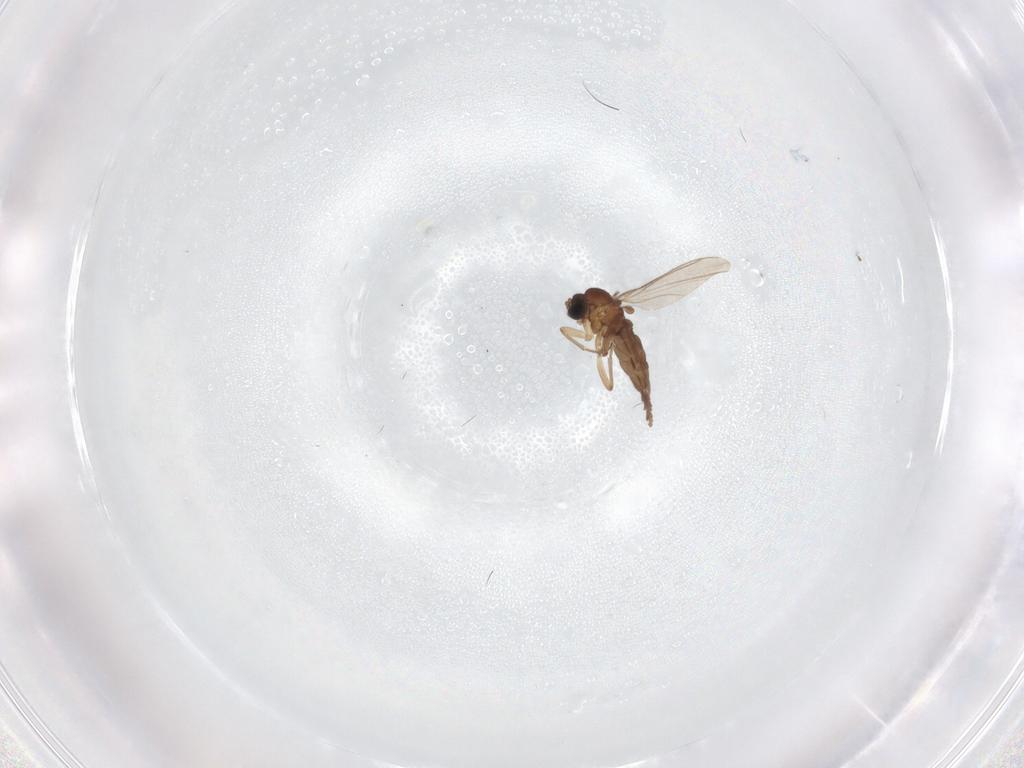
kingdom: Animalia
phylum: Arthropoda
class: Insecta
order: Diptera
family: Sciaridae
